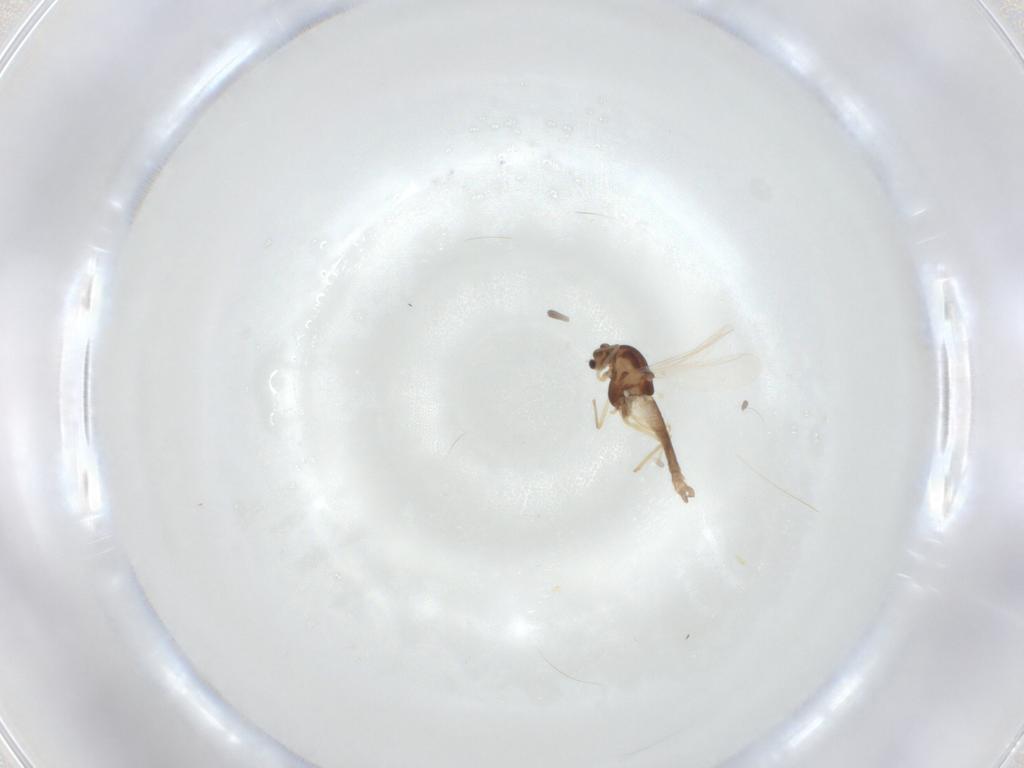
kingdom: Animalia
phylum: Arthropoda
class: Insecta
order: Diptera
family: Chironomidae
